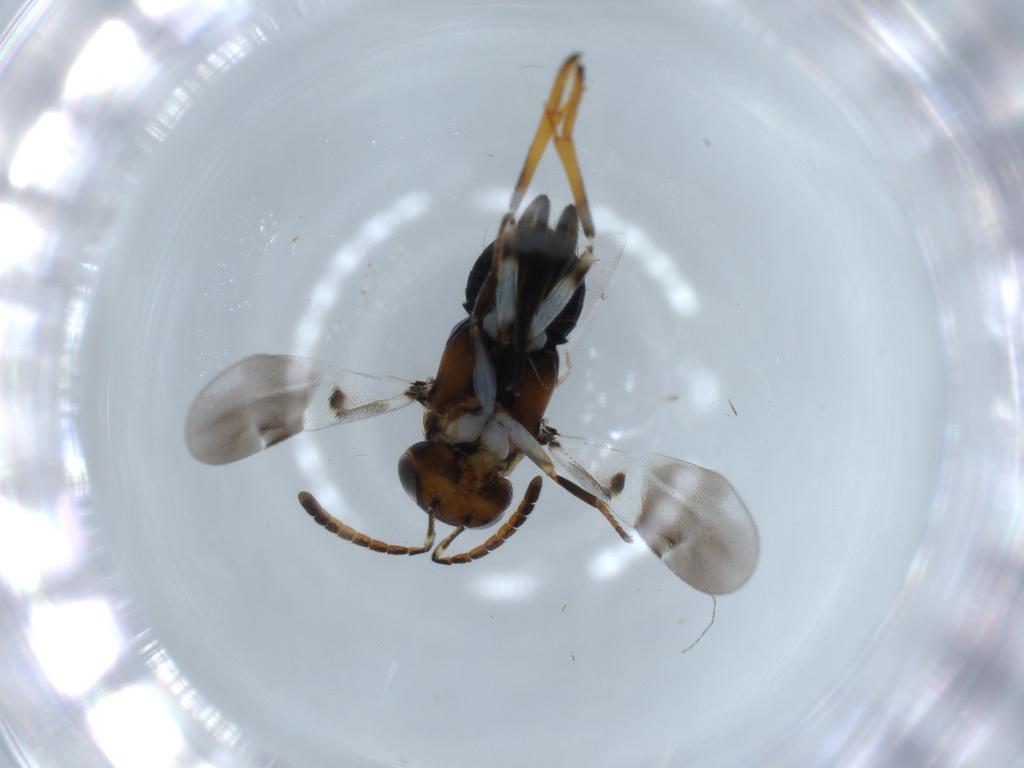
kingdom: Animalia
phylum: Arthropoda
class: Insecta
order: Hymenoptera
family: Encyrtidae
